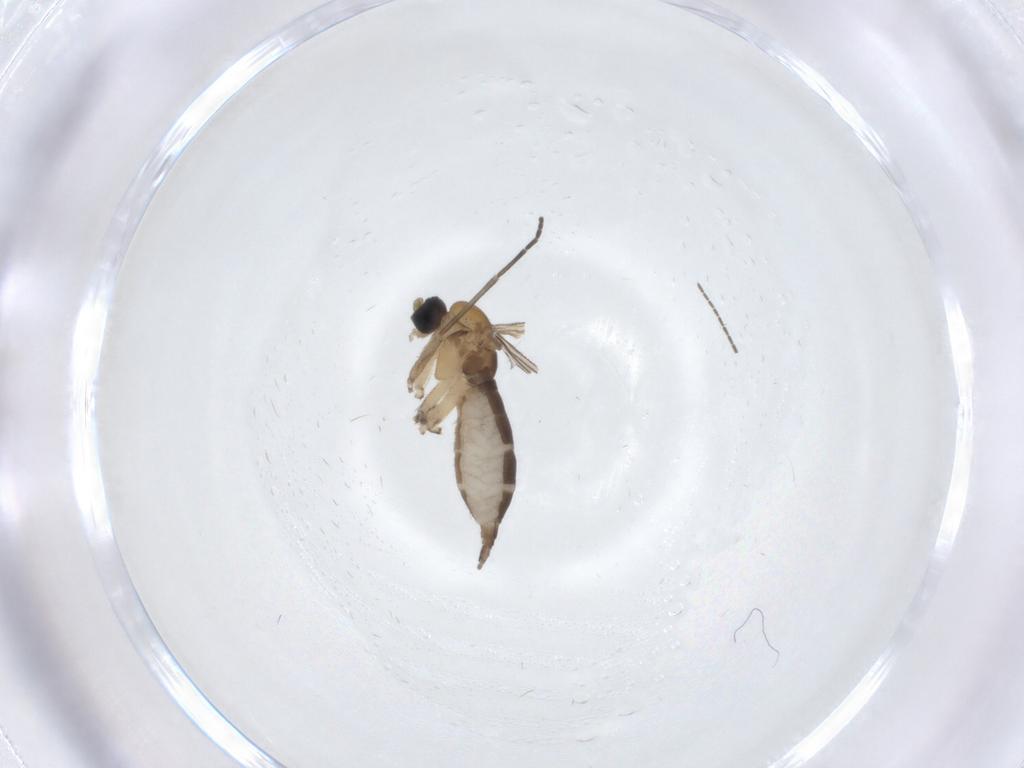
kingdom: Animalia
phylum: Arthropoda
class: Insecta
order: Diptera
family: Sciaridae
